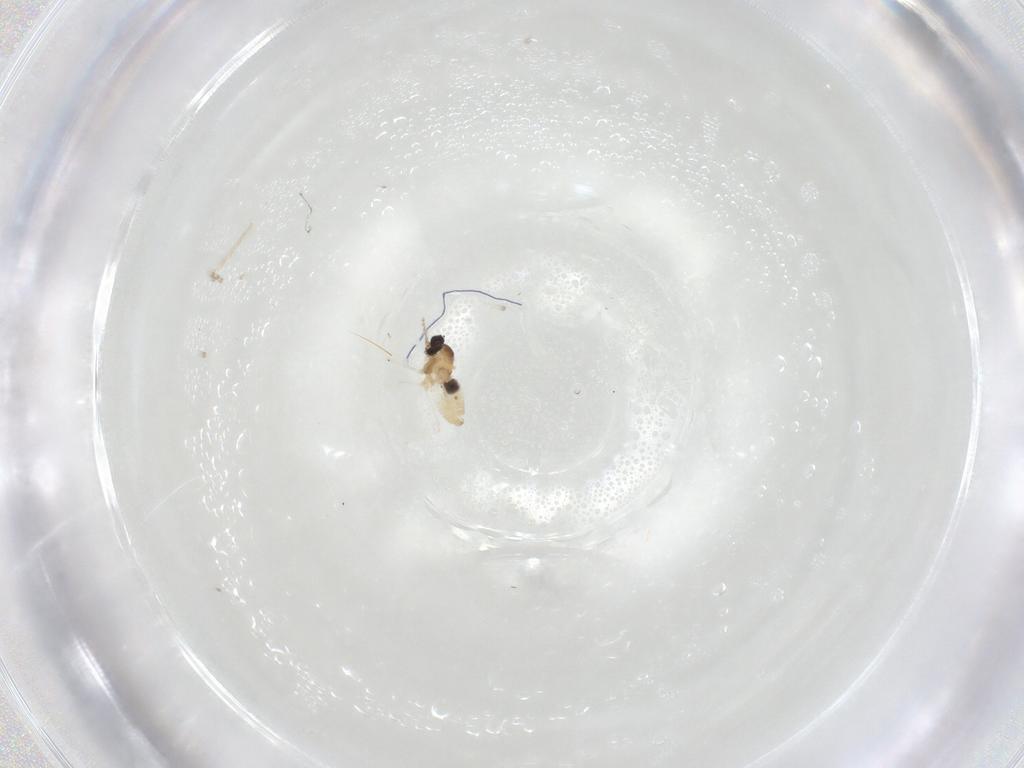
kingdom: Animalia
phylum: Arthropoda
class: Insecta
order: Diptera
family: Cecidomyiidae
